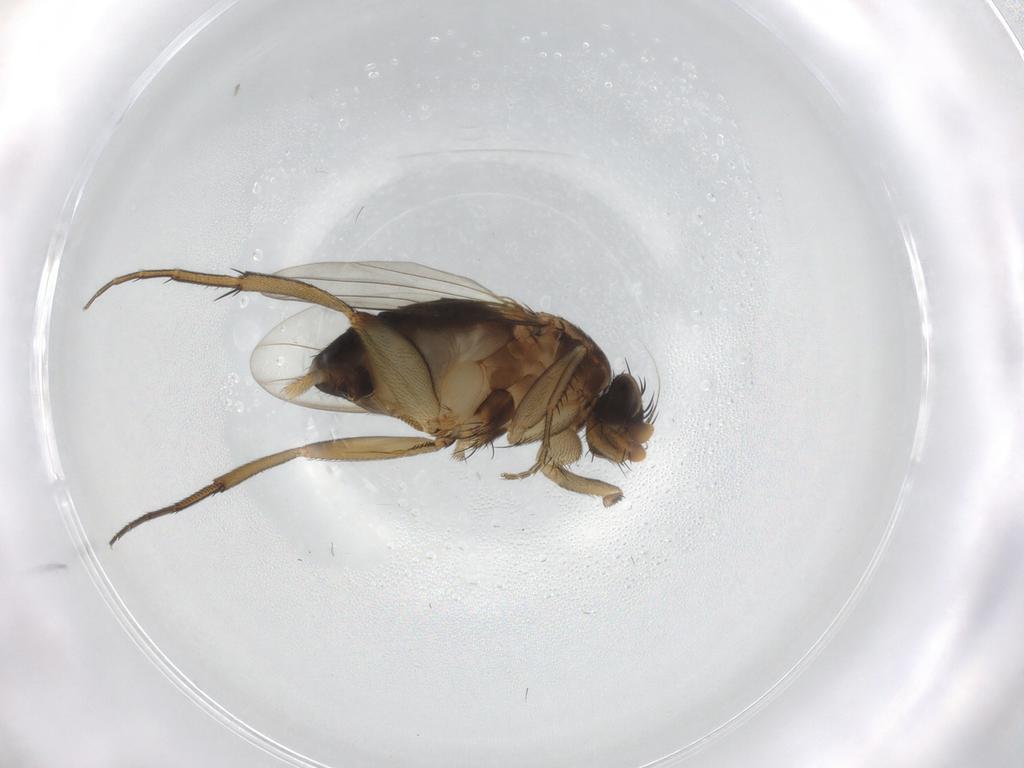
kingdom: Animalia
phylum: Arthropoda
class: Insecta
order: Diptera
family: Phoridae
